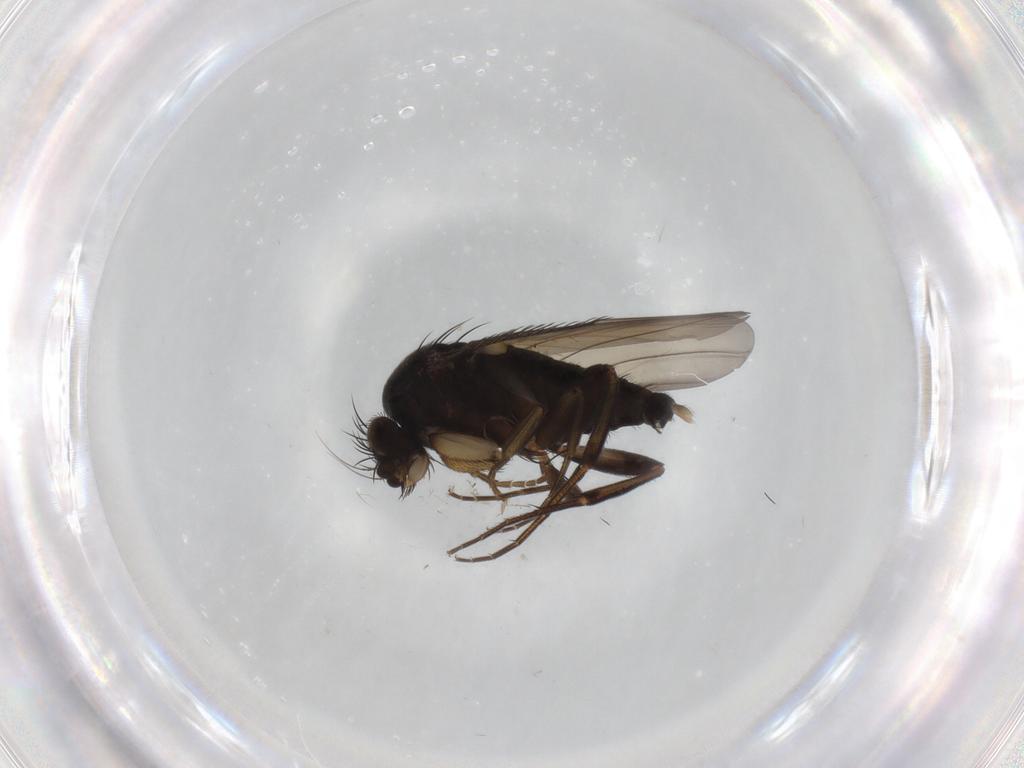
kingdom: Animalia
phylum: Arthropoda
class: Insecta
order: Diptera
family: Phoridae
